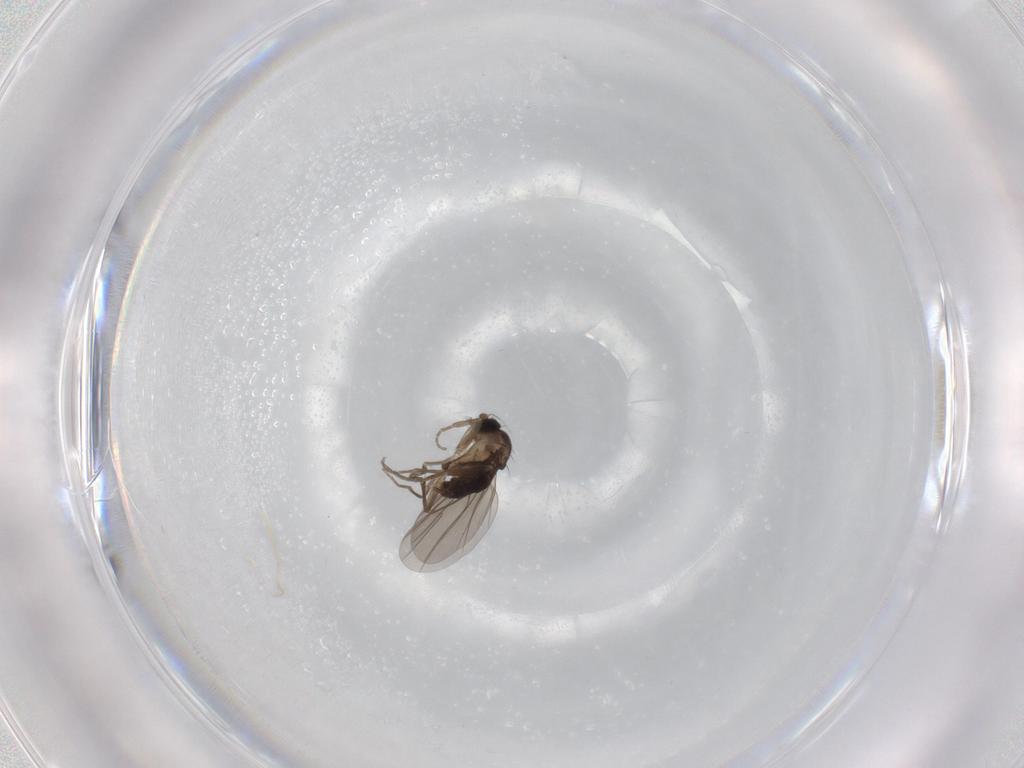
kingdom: Animalia
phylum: Arthropoda
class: Insecta
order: Diptera
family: Phoridae
